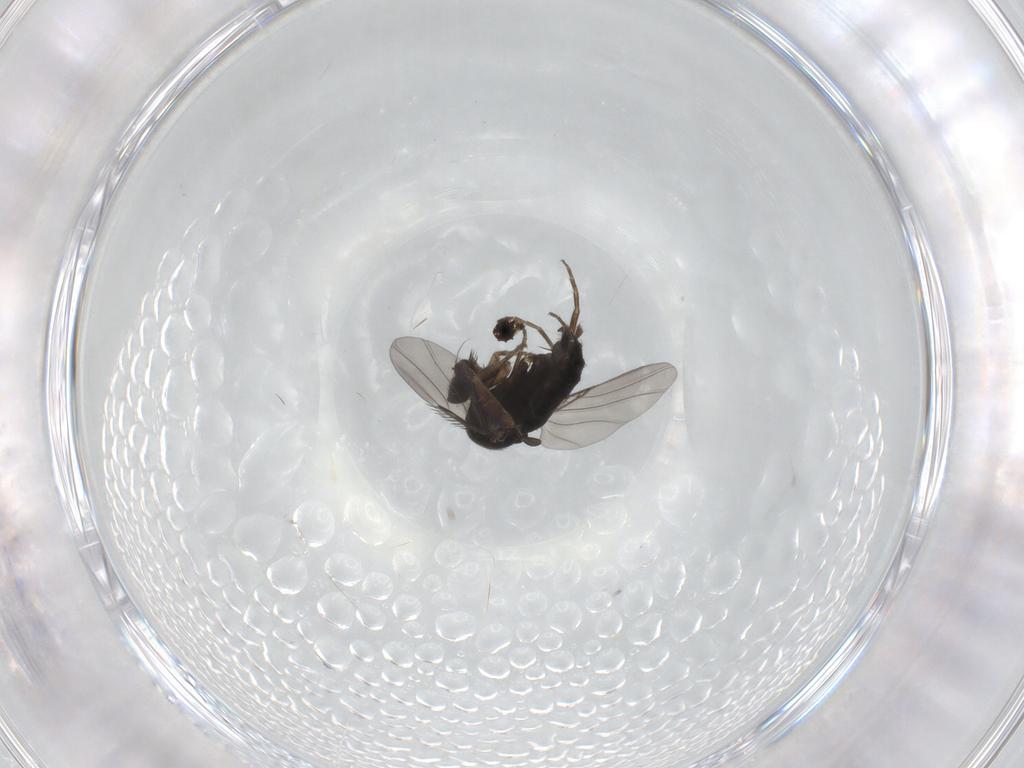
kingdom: Animalia
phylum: Arthropoda
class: Insecta
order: Diptera
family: Phoridae
